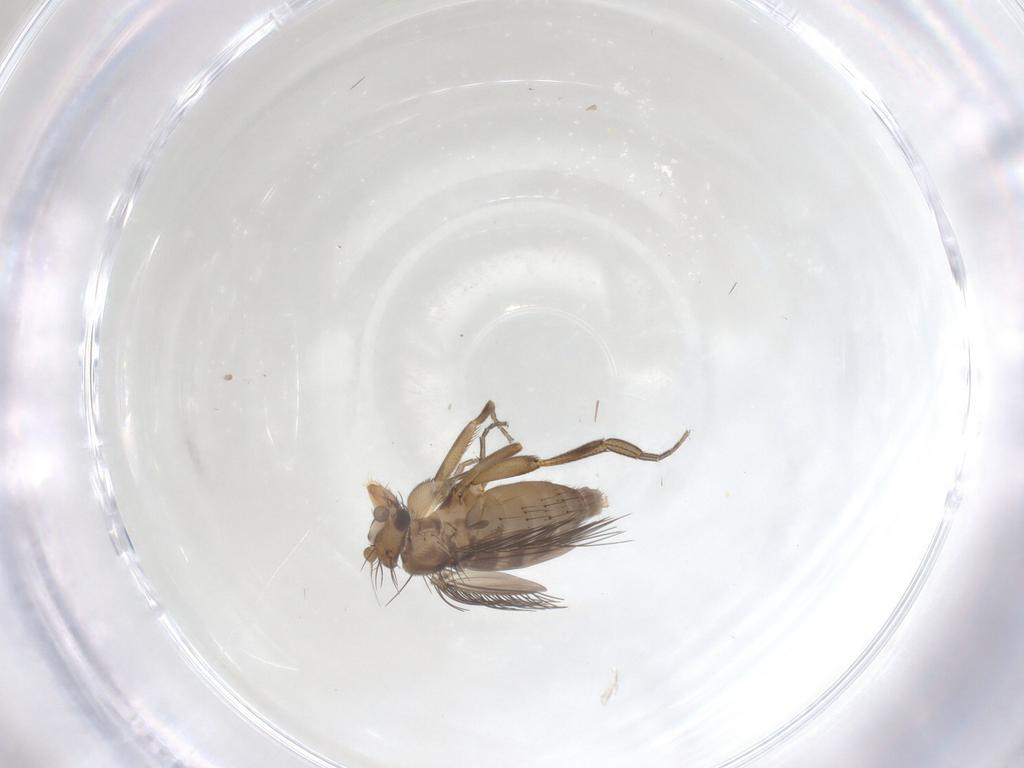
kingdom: Animalia
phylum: Arthropoda
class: Insecta
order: Diptera
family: Phoridae
